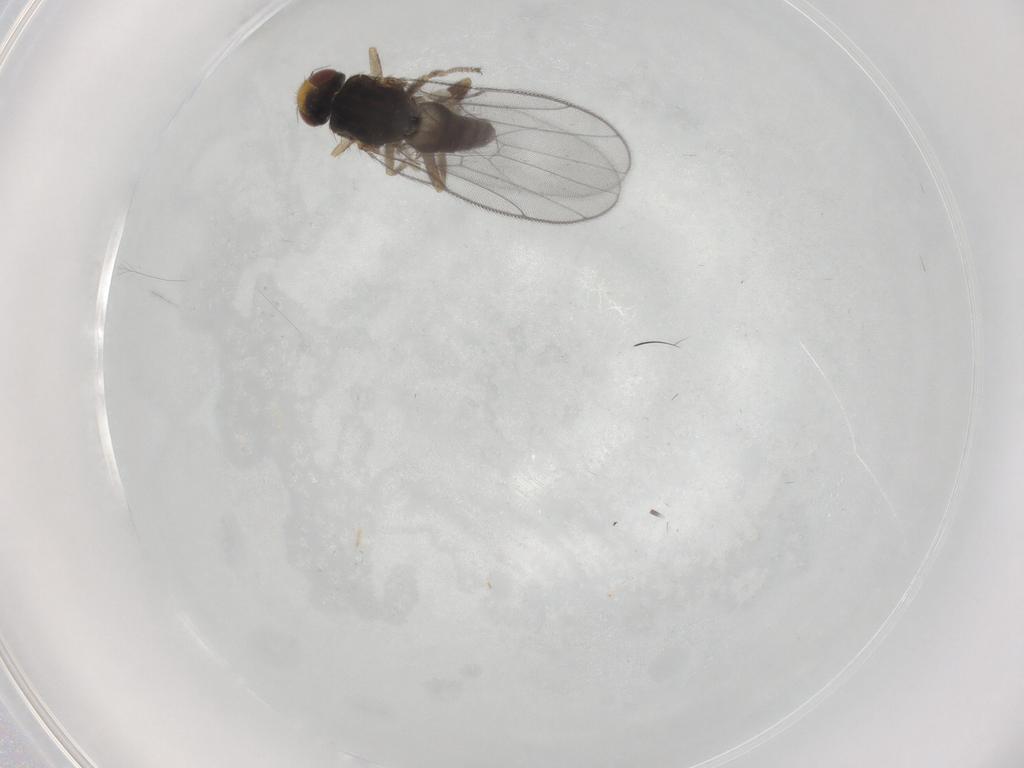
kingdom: Animalia
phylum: Arthropoda
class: Insecta
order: Diptera
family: Chloropidae
